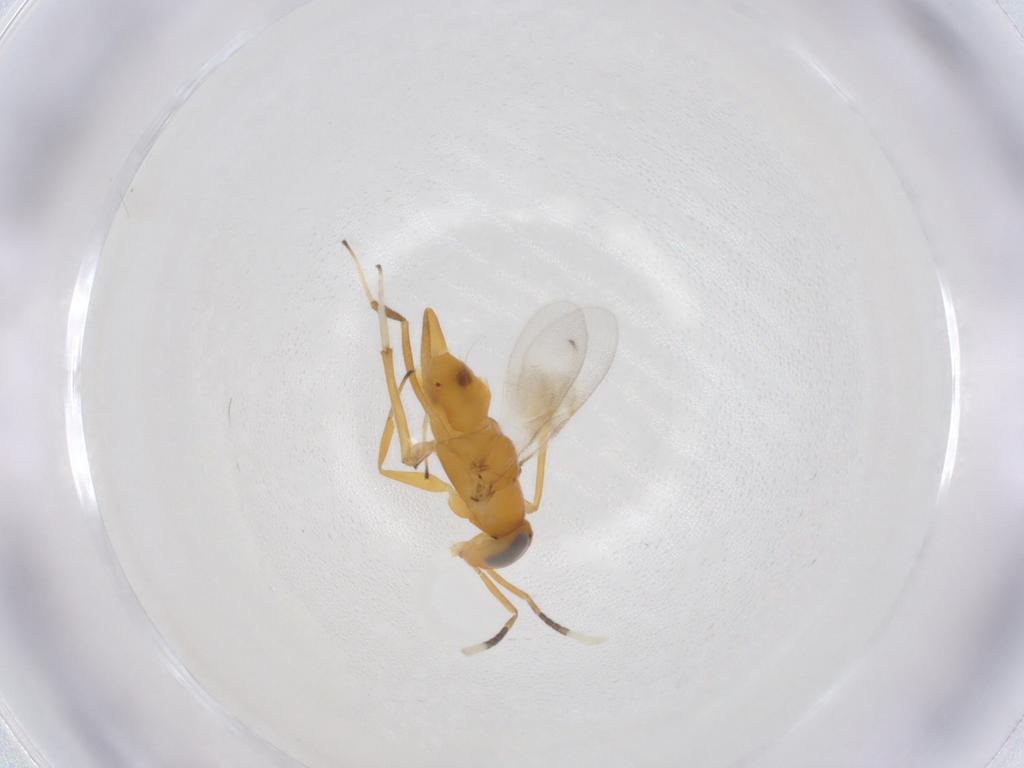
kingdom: Animalia
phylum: Arthropoda
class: Insecta
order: Hymenoptera
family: Encyrtidae
